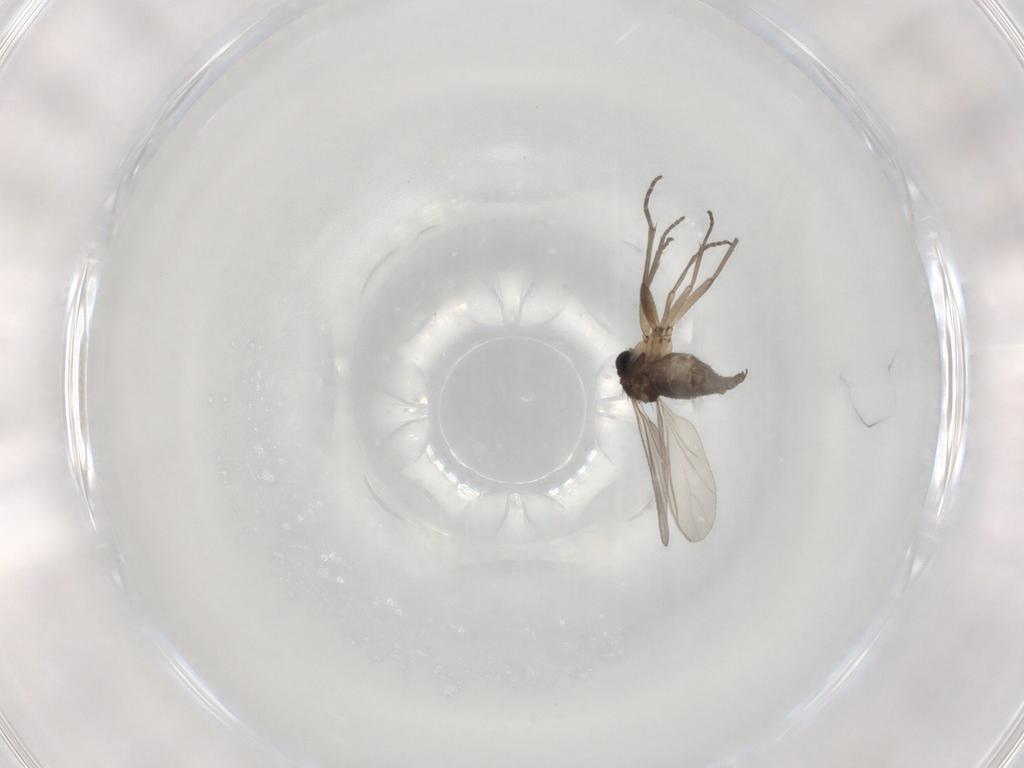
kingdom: Animalia
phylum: Arthropoda
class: Insecta
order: Diptera
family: Sciaridae
